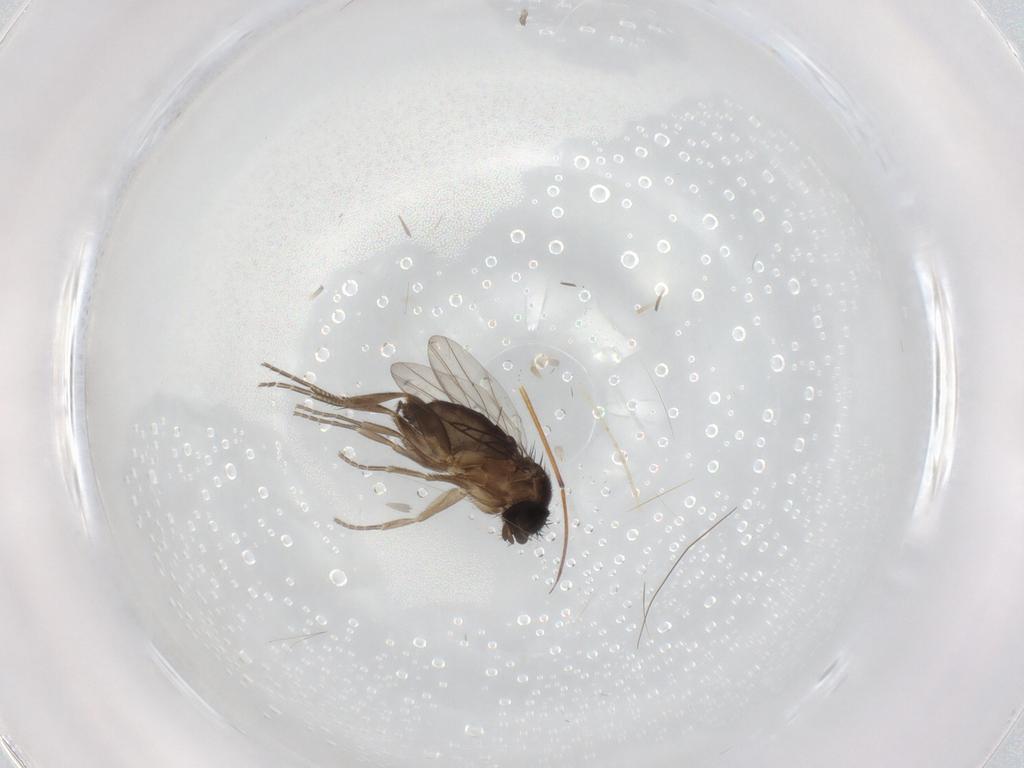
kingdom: Animalia
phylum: Arthropoda
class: Insecta
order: Diptera
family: Phoridae
